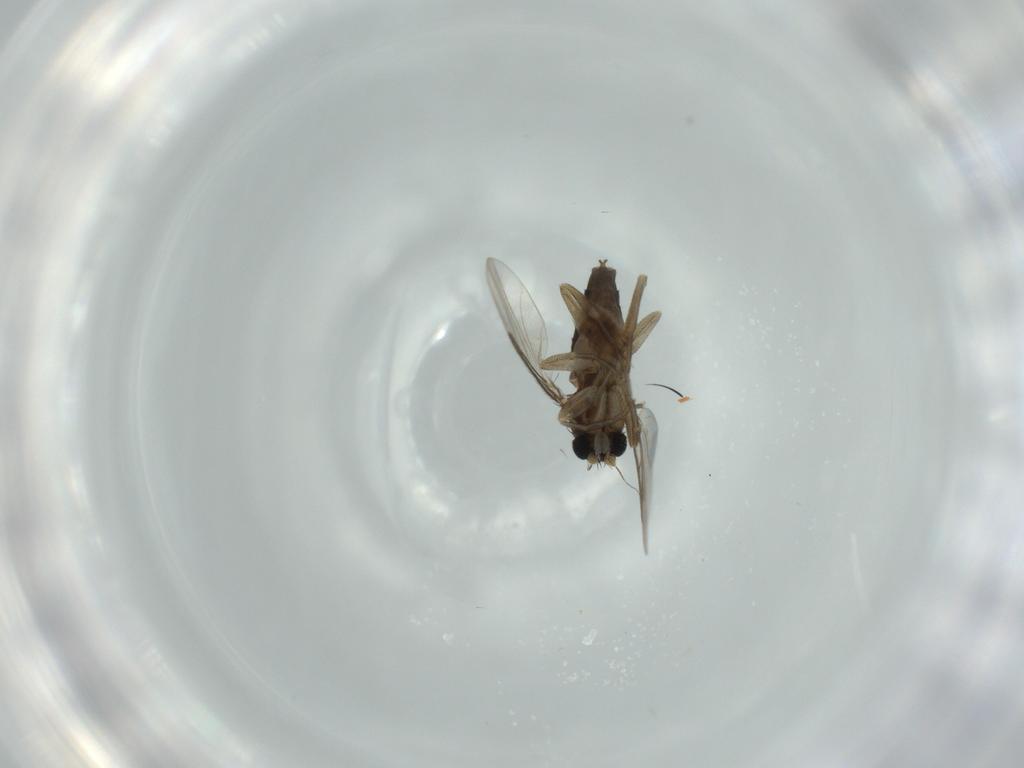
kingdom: Animalia
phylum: Arthropoda
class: Insecta
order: Diptera
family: Phoridae
